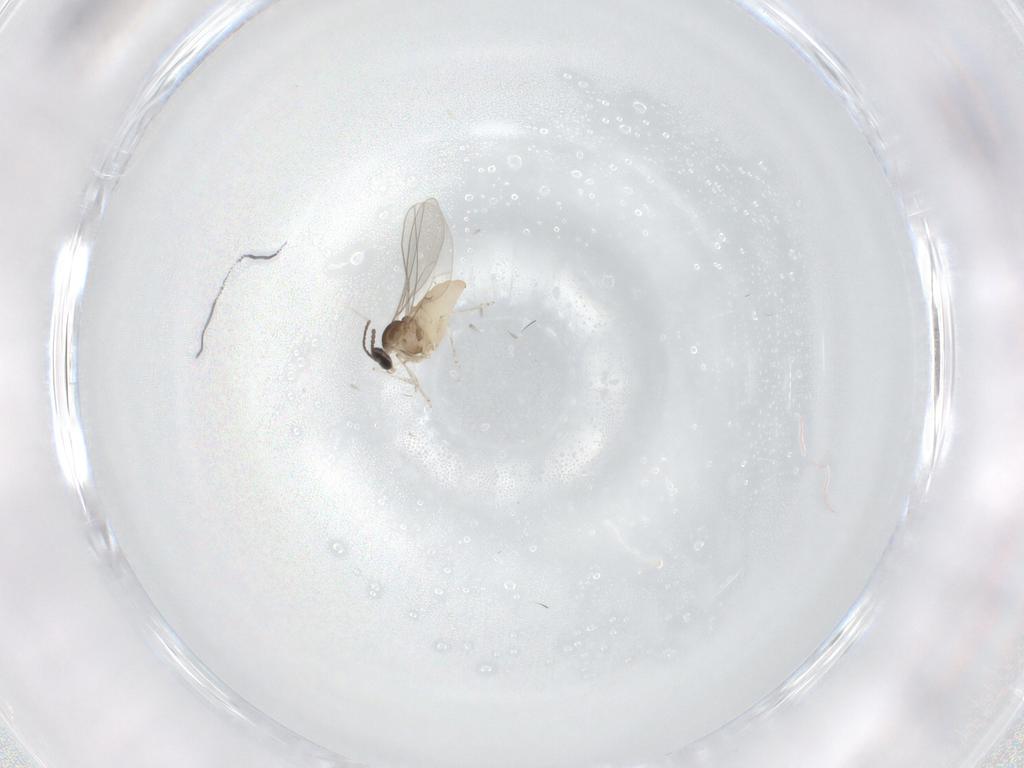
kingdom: Animalia
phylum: Arthropoda
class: Insecta
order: Diptera
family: Cecidomyiidae
